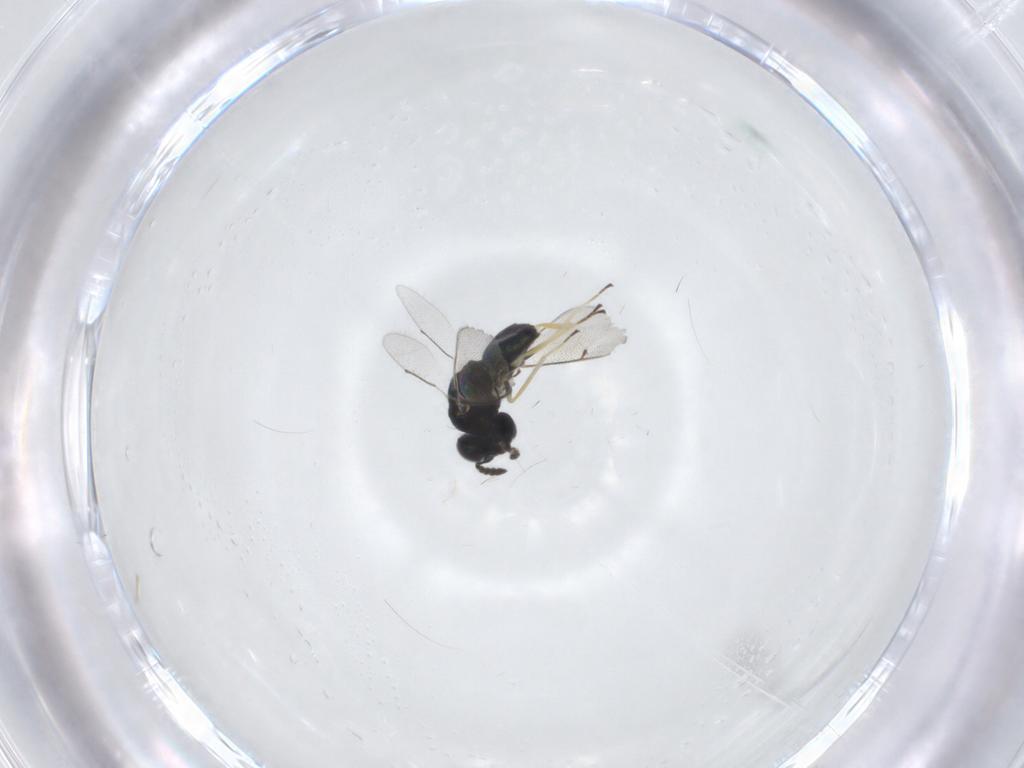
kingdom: Animalia
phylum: Arthropoda
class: Insecta
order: Hymenoptera
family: Eulophidae
